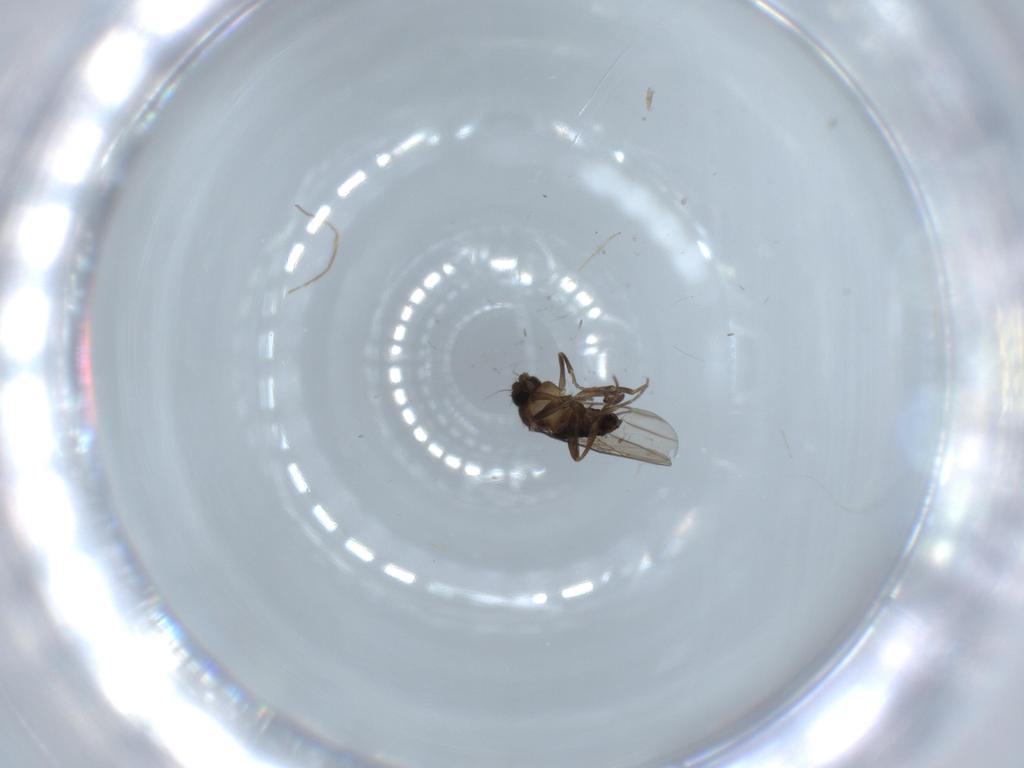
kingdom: Animalia
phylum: Arthropoda
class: Insecta
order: Diptera
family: Phoridae
